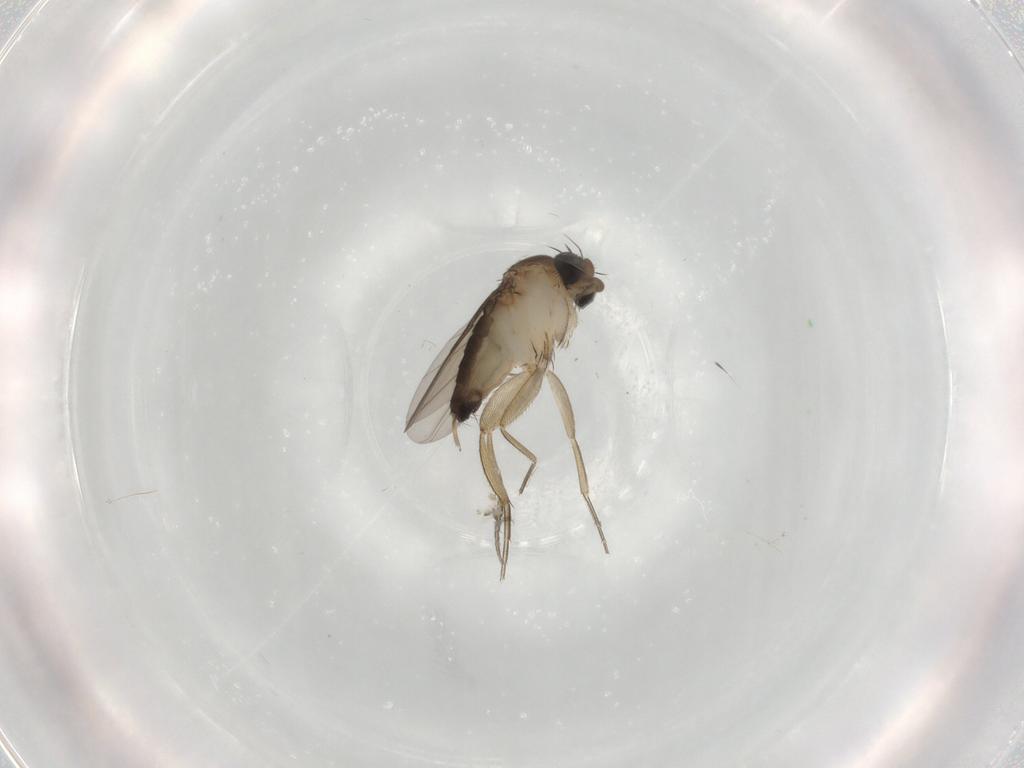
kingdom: Animalia
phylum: Arthropoda
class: Insecta
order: Diptera
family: Phoridae
